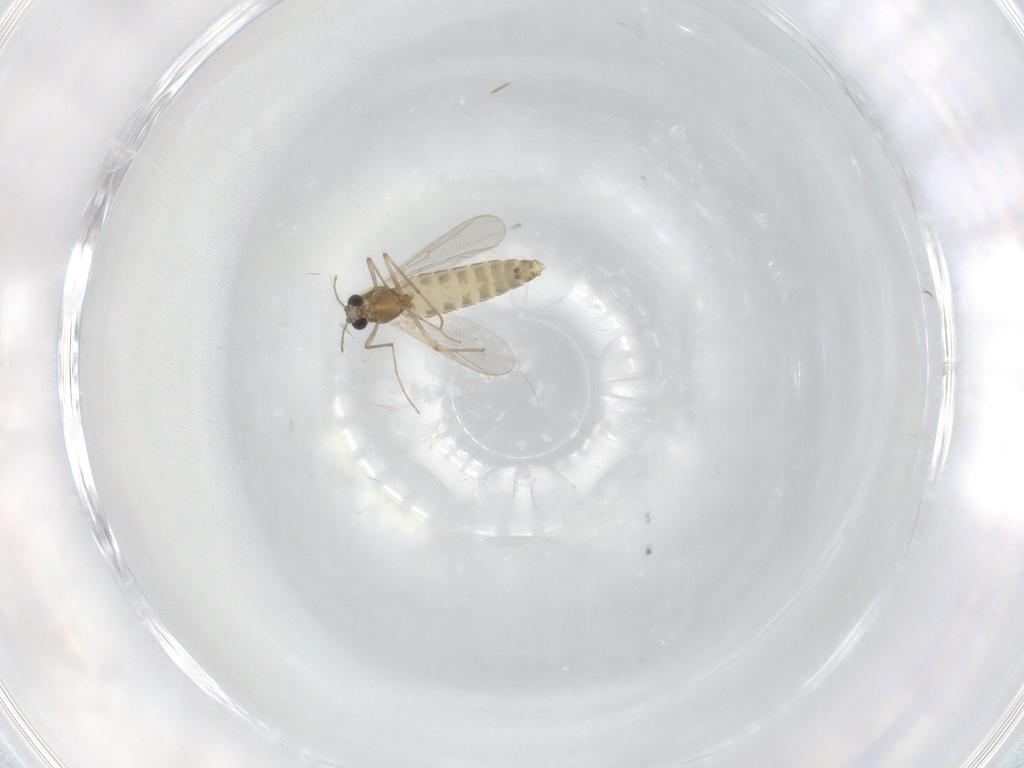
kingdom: Animalia
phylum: Arthropoda
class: Insecta
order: Diptera
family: Chironomidae
